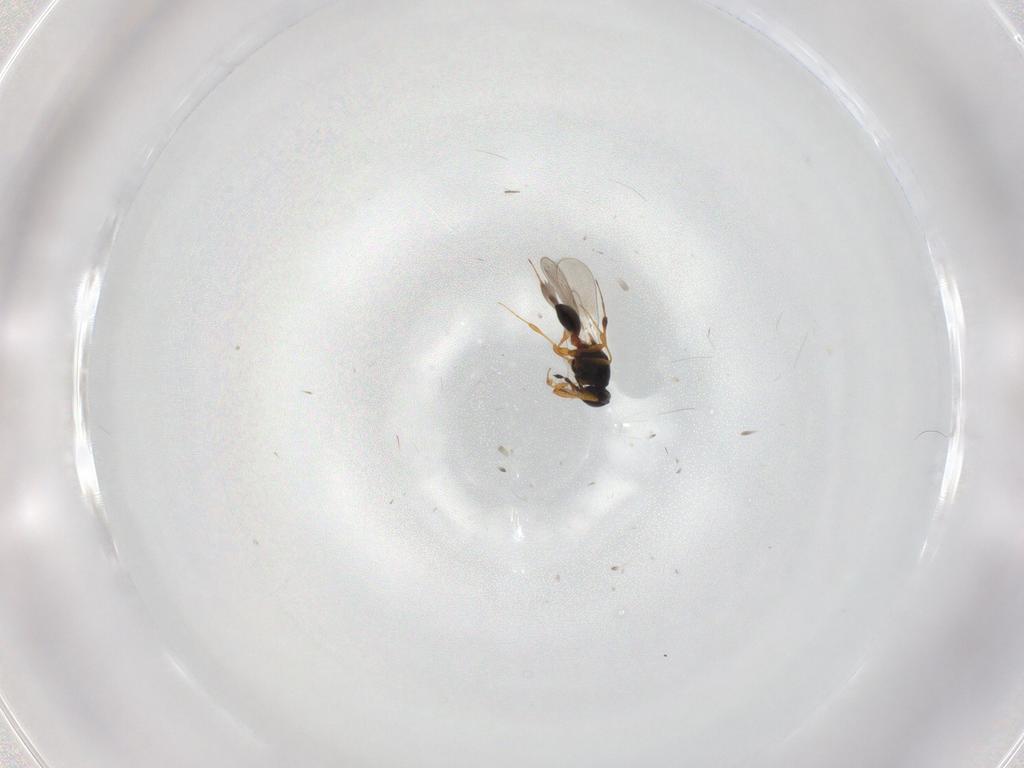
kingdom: Animalia
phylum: Arthropoda
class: Insecta
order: Hymenoptera
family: Platygastridae
